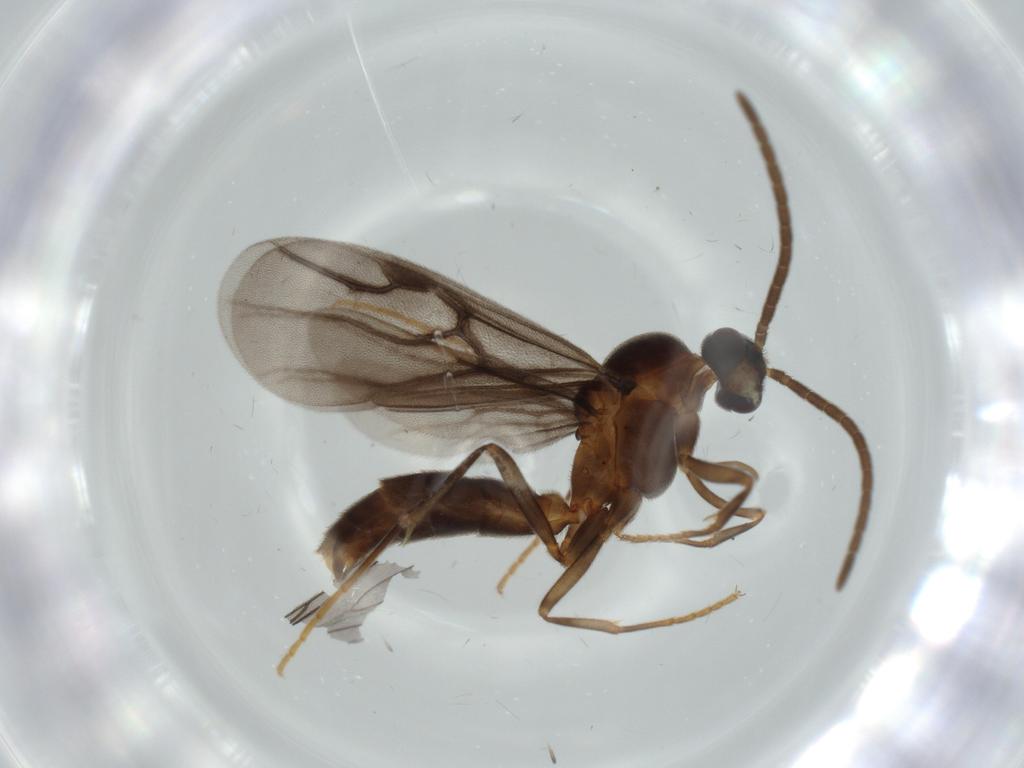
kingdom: Animalia
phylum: Arthropoda
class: Insecta
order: Hymenoptera
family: Formicidae
